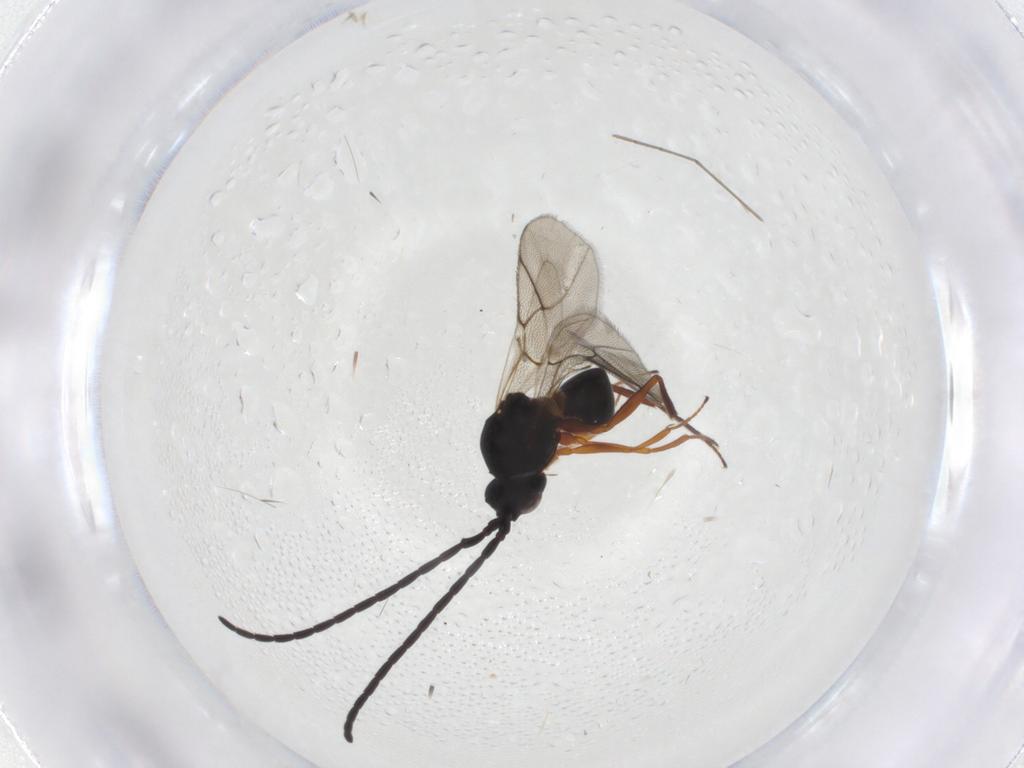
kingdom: Animalia
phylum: Arthropoda
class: Insecta
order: Hymenoptera
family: Figitidae
